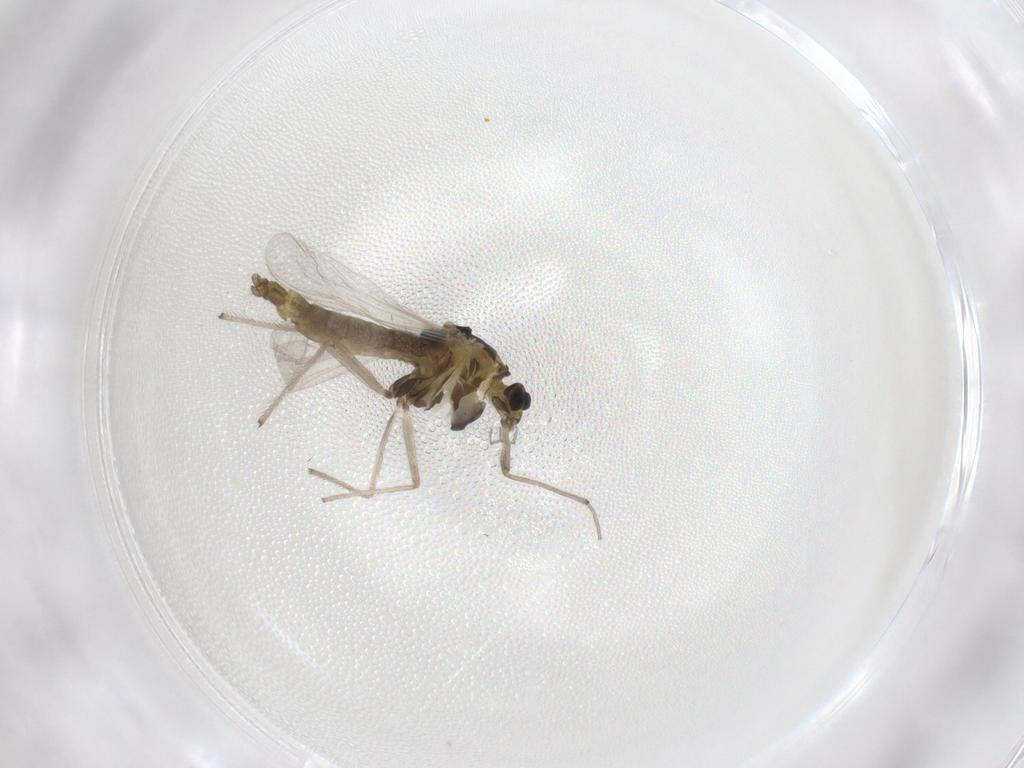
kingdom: Animalia
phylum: Arthropoda
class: Insecta
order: Diptera
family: Chironomidae
